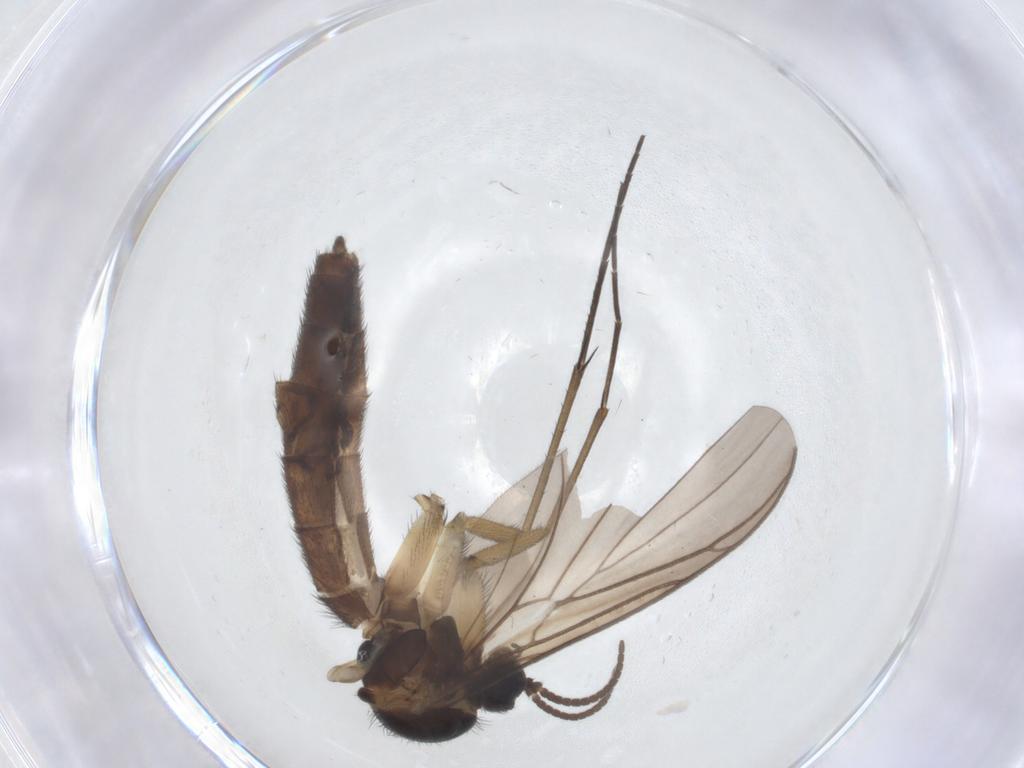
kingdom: Animalia
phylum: Arthropoda
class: Insecta
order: Diptera
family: Keroplatidae
